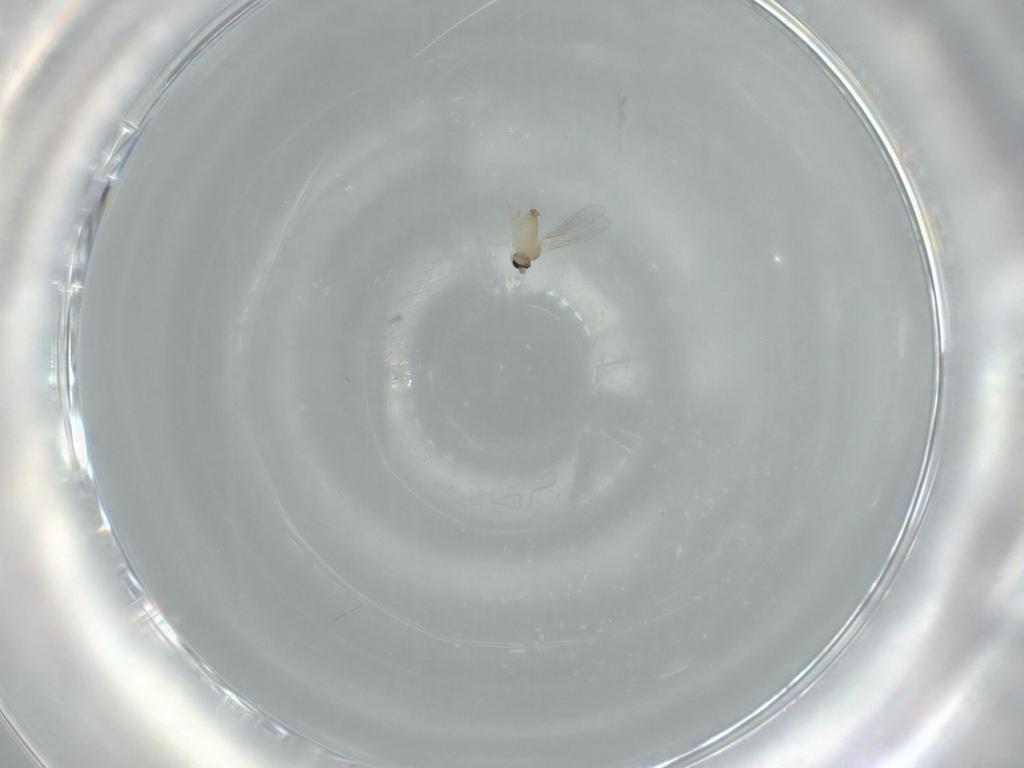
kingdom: Animalia
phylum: Arthropoda
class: Insecta
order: Diptera
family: Cecidomyiidae
